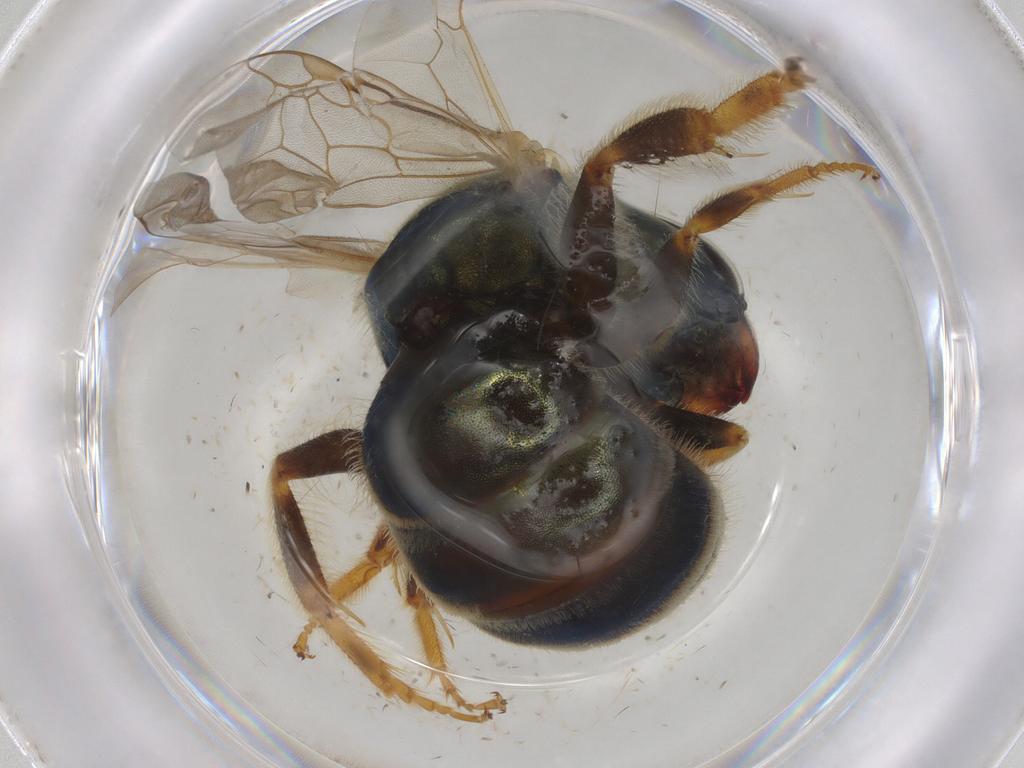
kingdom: Animalia
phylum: Arthropoda
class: Insecta
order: Hymenoptera
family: Halictidae
